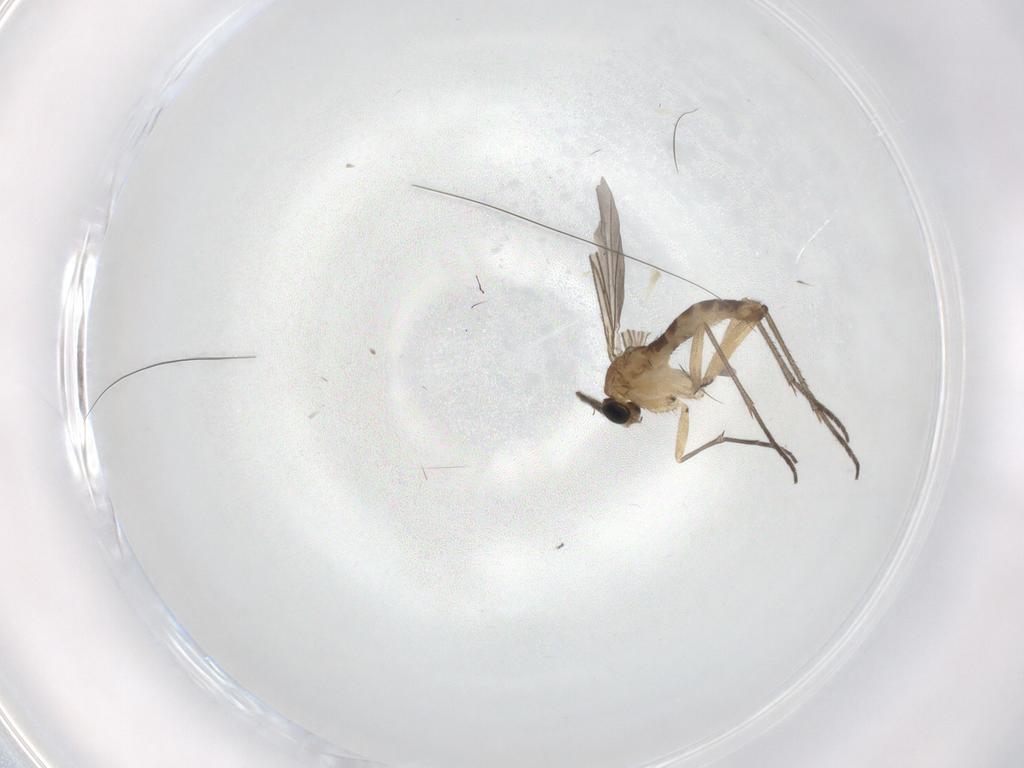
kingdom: Animalia
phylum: Arthropoda
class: Insecta
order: Diptera
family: Sciaridae
